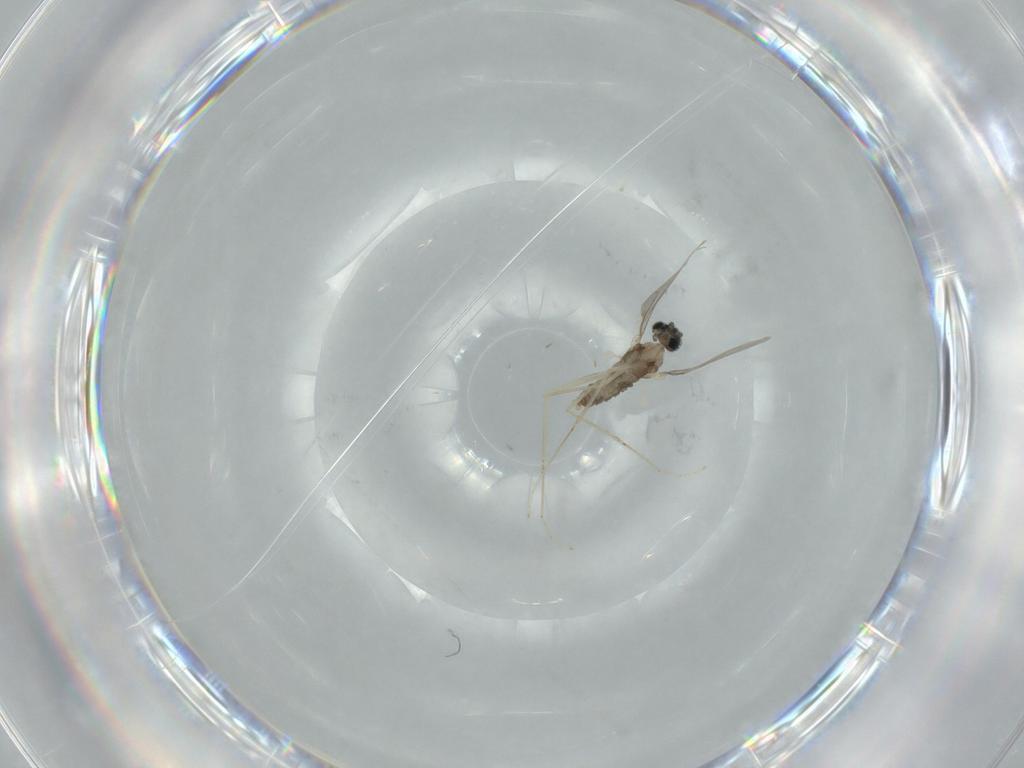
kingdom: Animalia
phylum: Arthropoda
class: Insecta
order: Diptera
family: Cecidomyiidae
